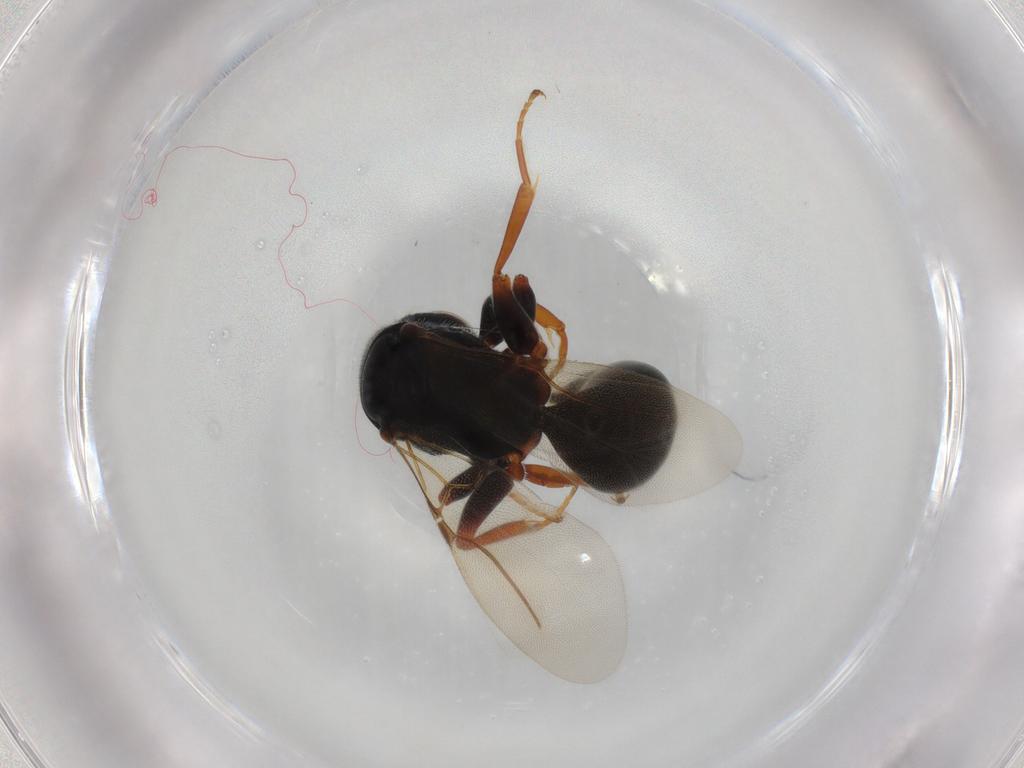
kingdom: Animalia
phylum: Arthropoda
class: Insecta
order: Hymenoptera
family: Bethylidae
